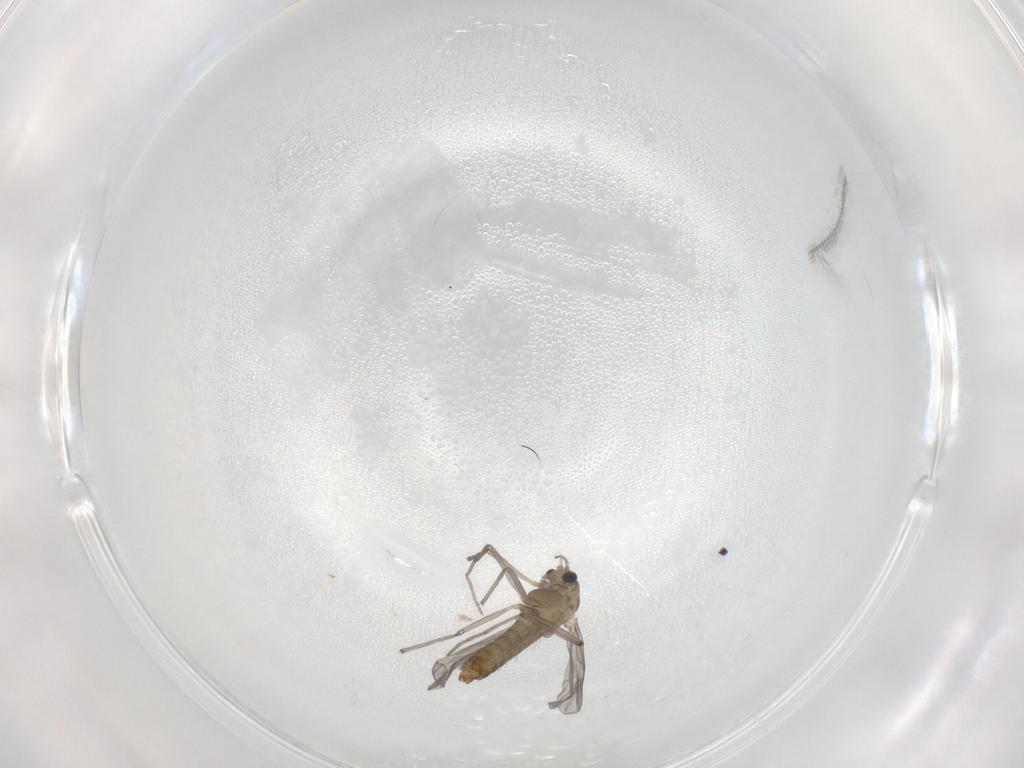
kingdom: Animalia
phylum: Arthropoda
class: Insecta
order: Diptera
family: Chironomidae
